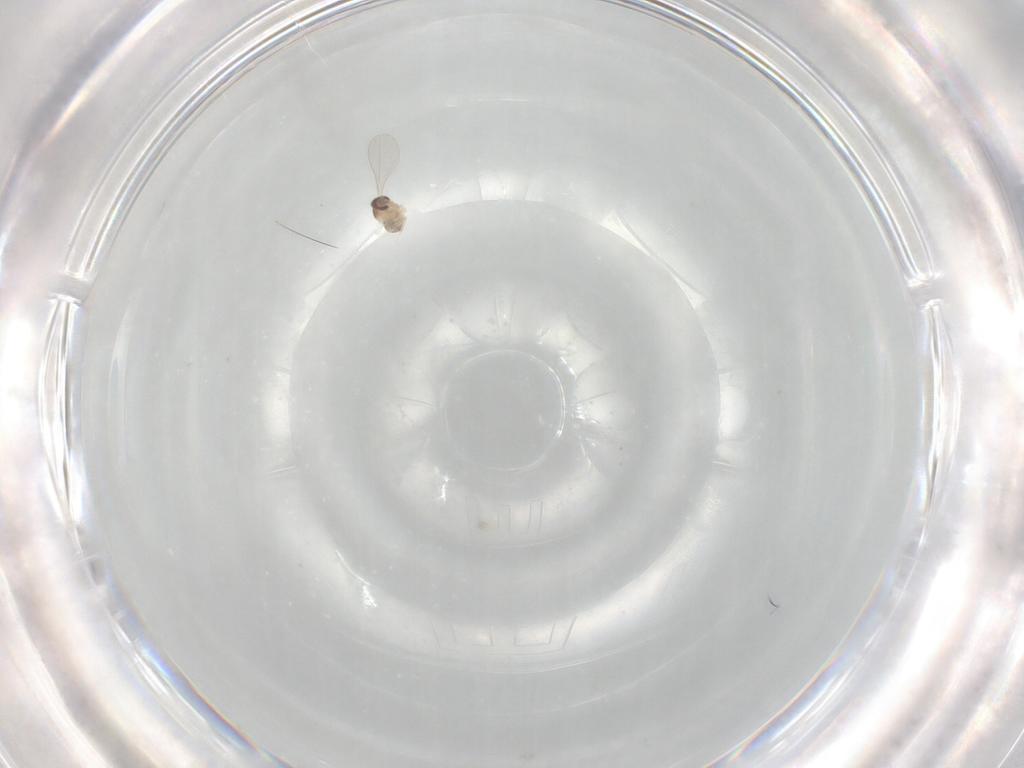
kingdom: Animalia
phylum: Arthropoda
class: Insecta
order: Diptera
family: Cecidomyiidae
